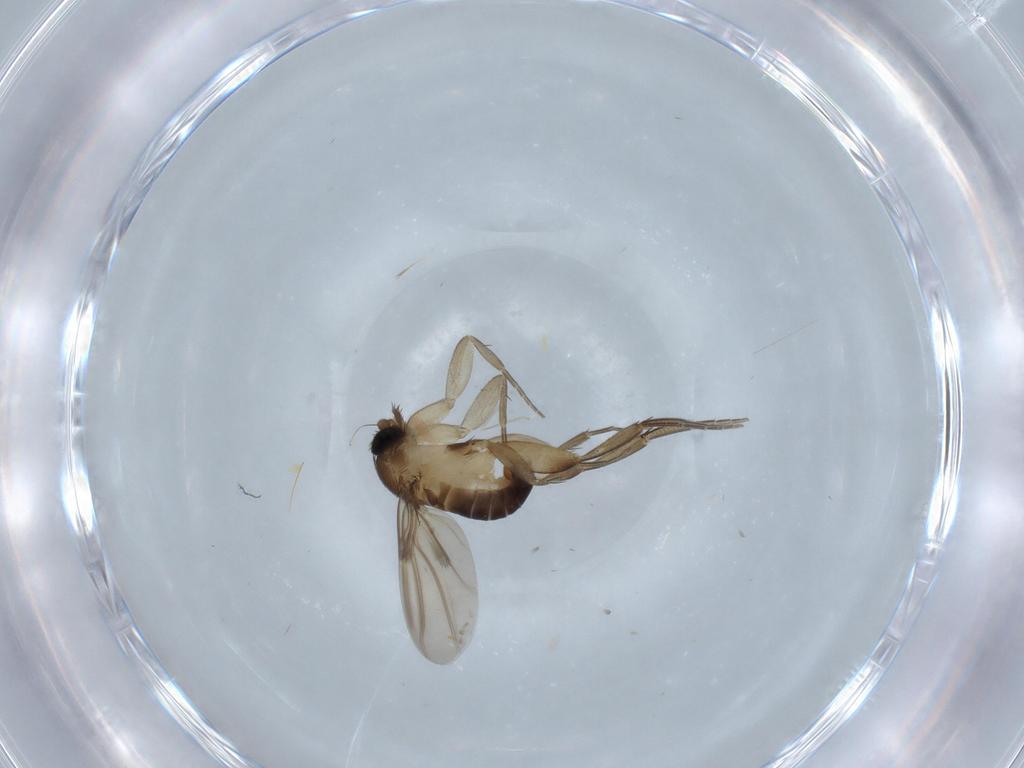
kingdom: Animalia
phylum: Arthropoda
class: Insecta
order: Diptera
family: Phoridae
